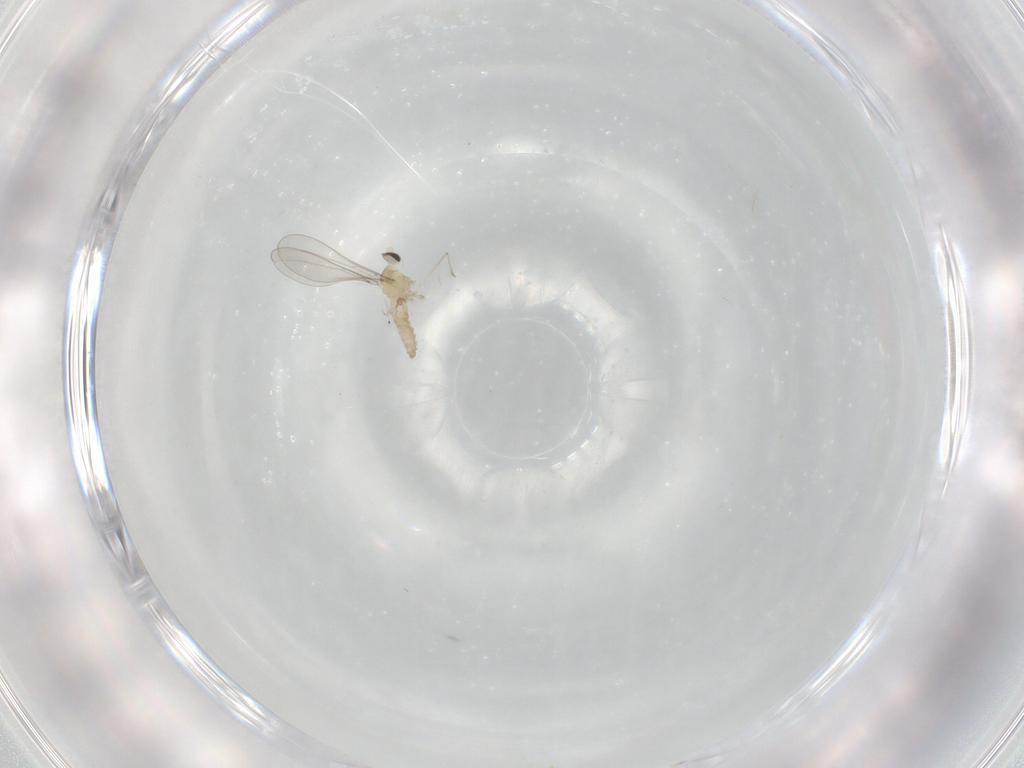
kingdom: Animalia
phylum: Arthropoda
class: Insecta
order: Diptera
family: Cecidomyiidae
